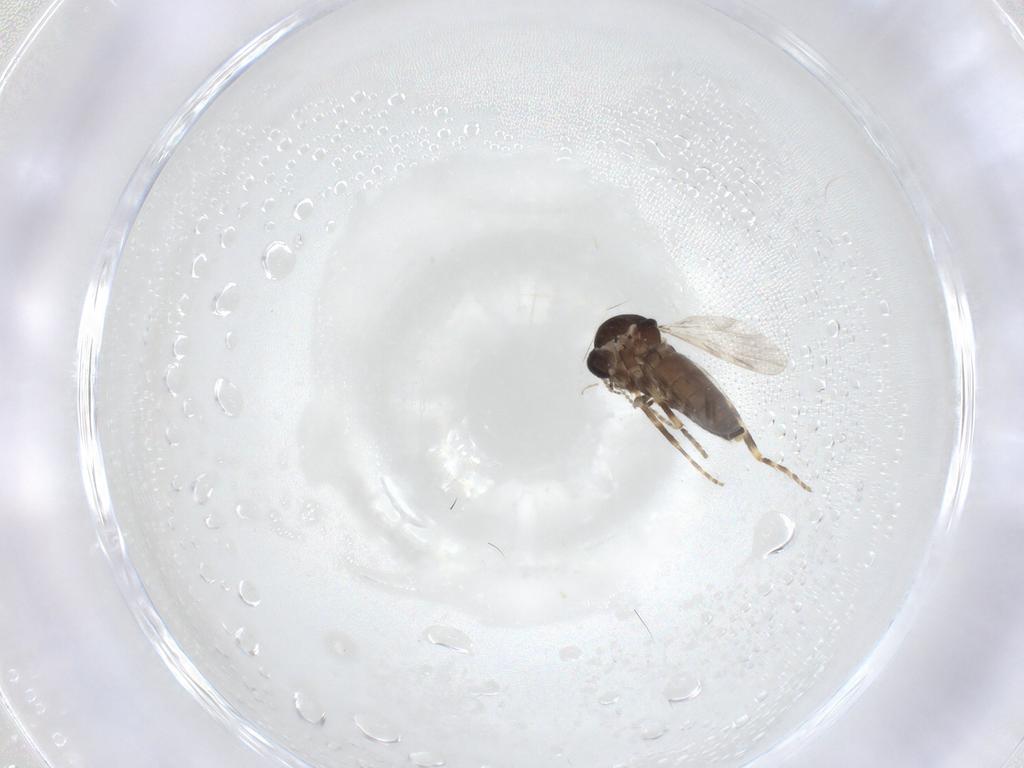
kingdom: Animalia
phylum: Arthropoda
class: Insecta
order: Diptera
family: Ceratopogonidae
